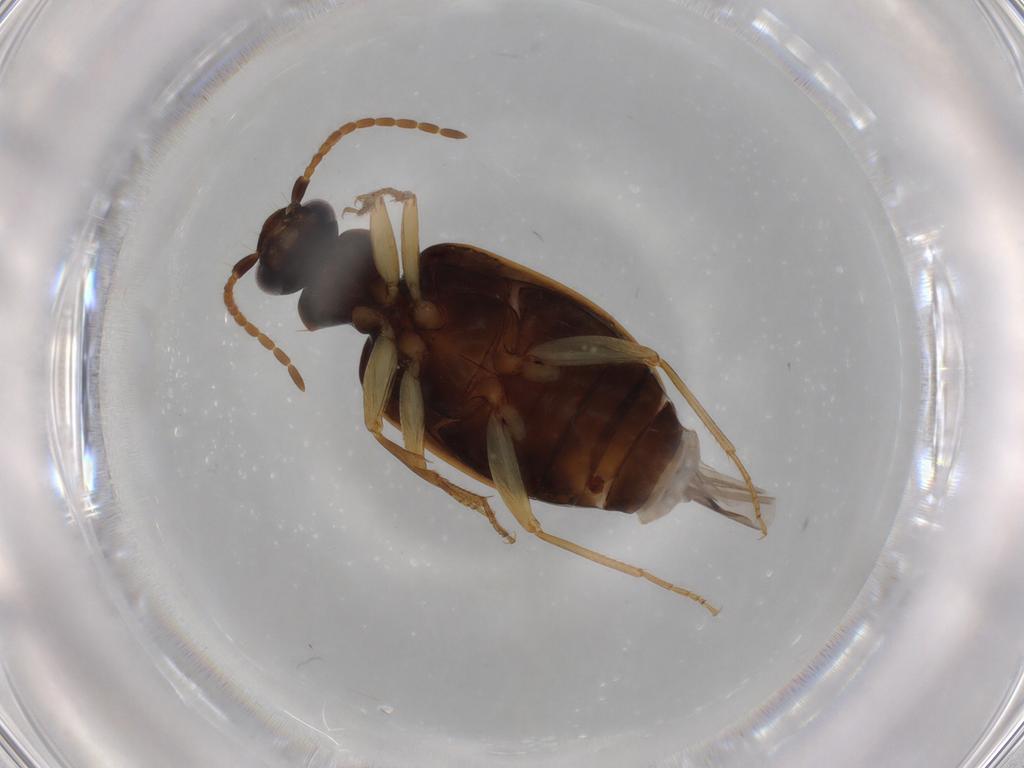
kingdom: Animalia
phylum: Arthropoda
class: Insecta
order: Coleoptera
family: Carabidae
